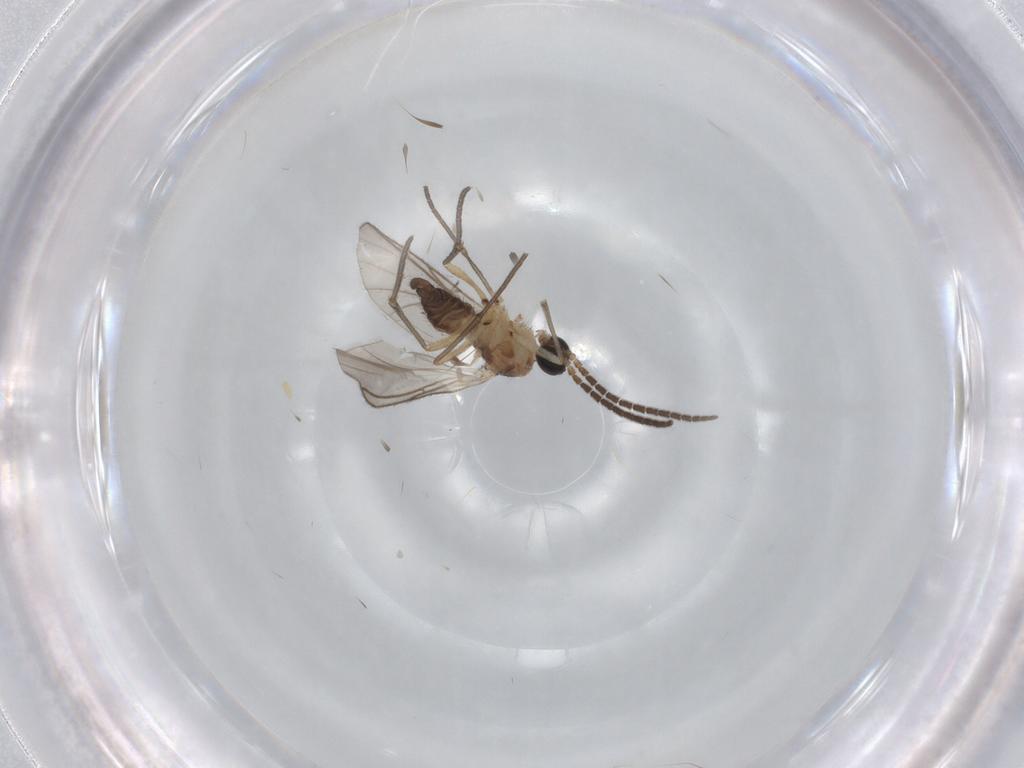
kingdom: Animalia
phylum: Arthropoda
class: Insecta
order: Diptera
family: Sciaridae
